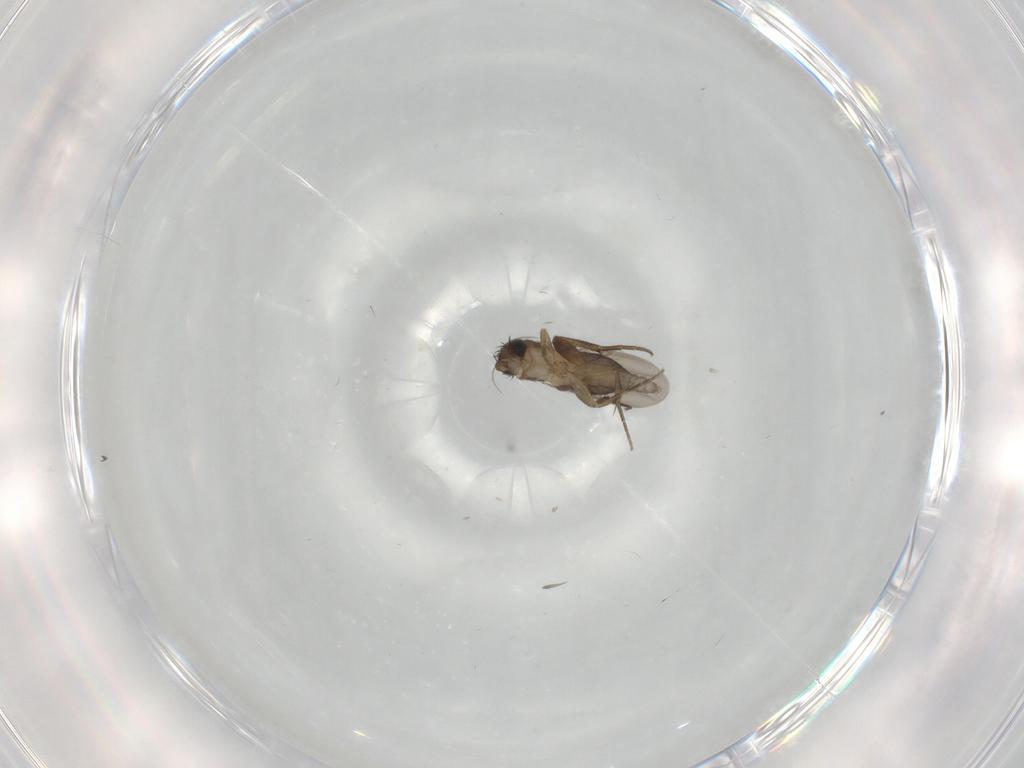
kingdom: Animalia
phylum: Arthropoda
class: Insecta
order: Diptera
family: Phoridae
